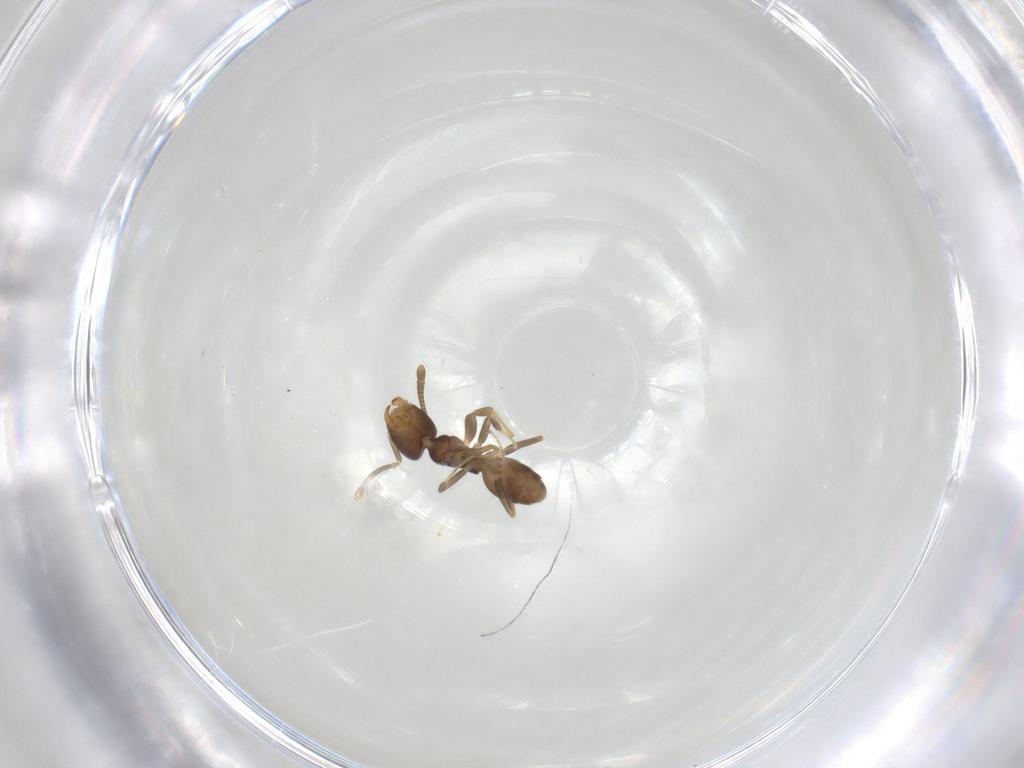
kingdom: Animalia
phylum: Arthropoda
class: Insecta
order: Hymenoptera
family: Formicidae
